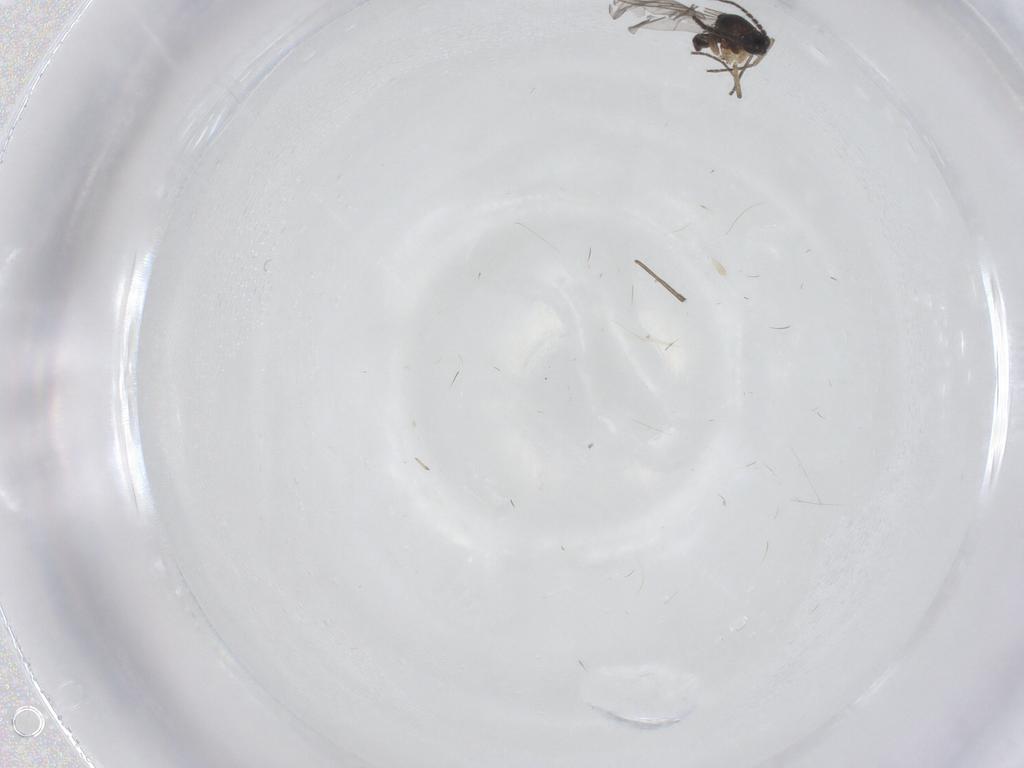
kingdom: Animalia
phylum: Arthropoda
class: Insecta
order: Diptera
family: Sciaridae
